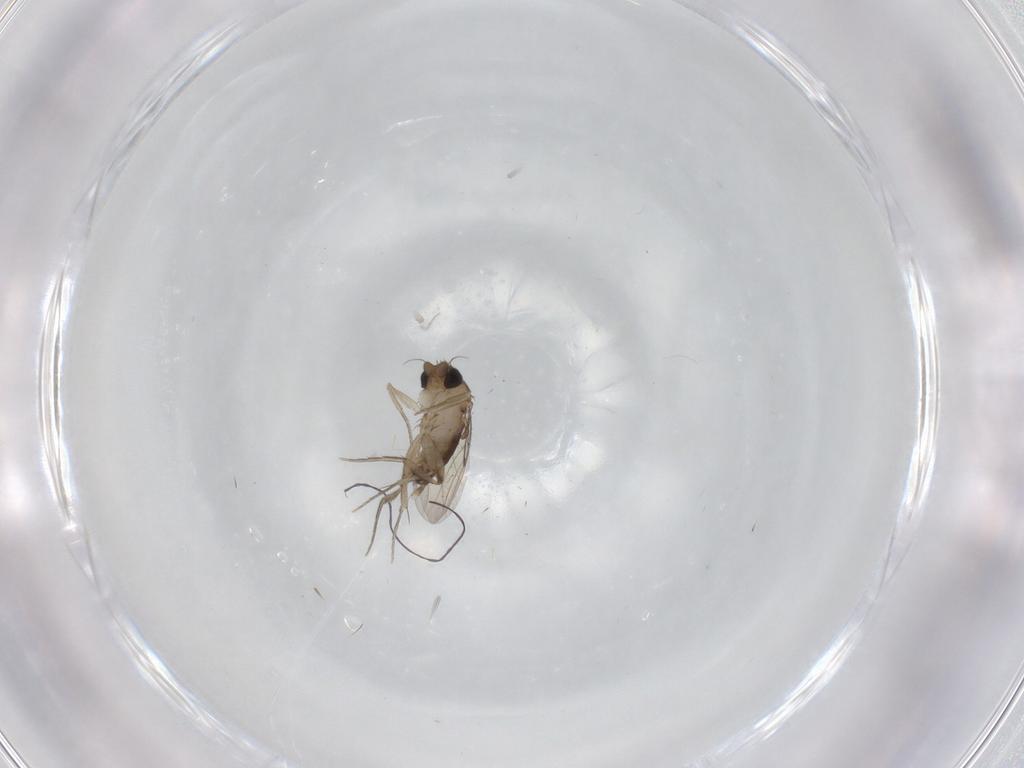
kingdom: Animalia
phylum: Arthropoda
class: Insecta
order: Diptera
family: Phoridae
